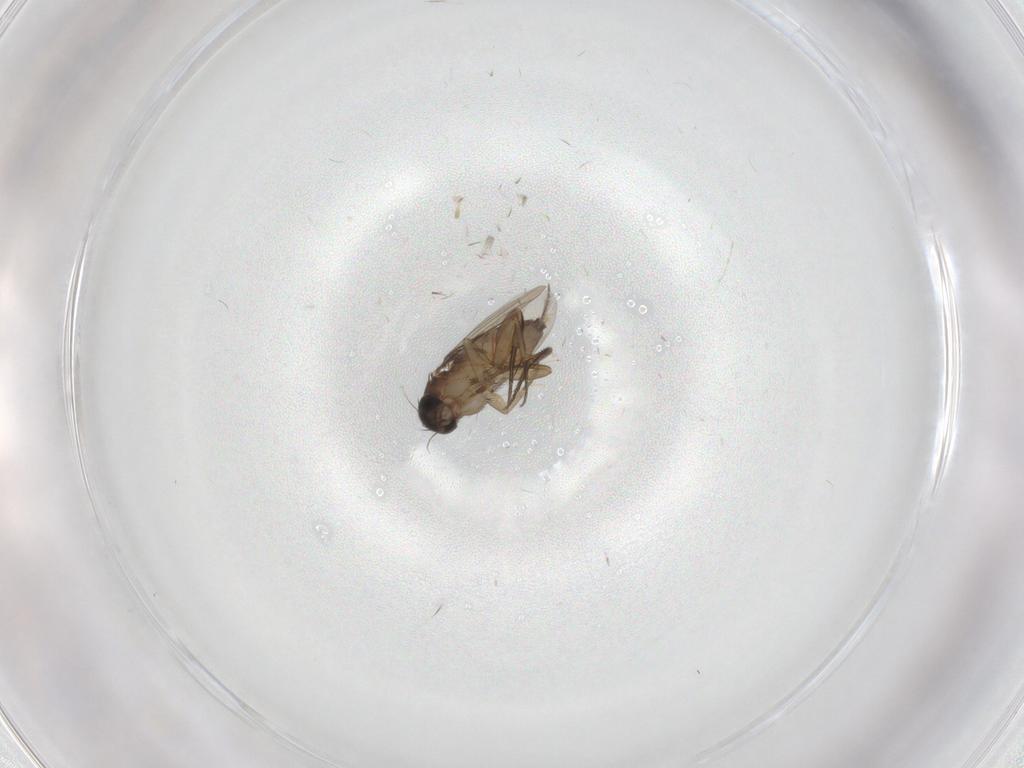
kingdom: Animalia
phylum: Arthropoda
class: Insecta
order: Diptera
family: Phoridae
